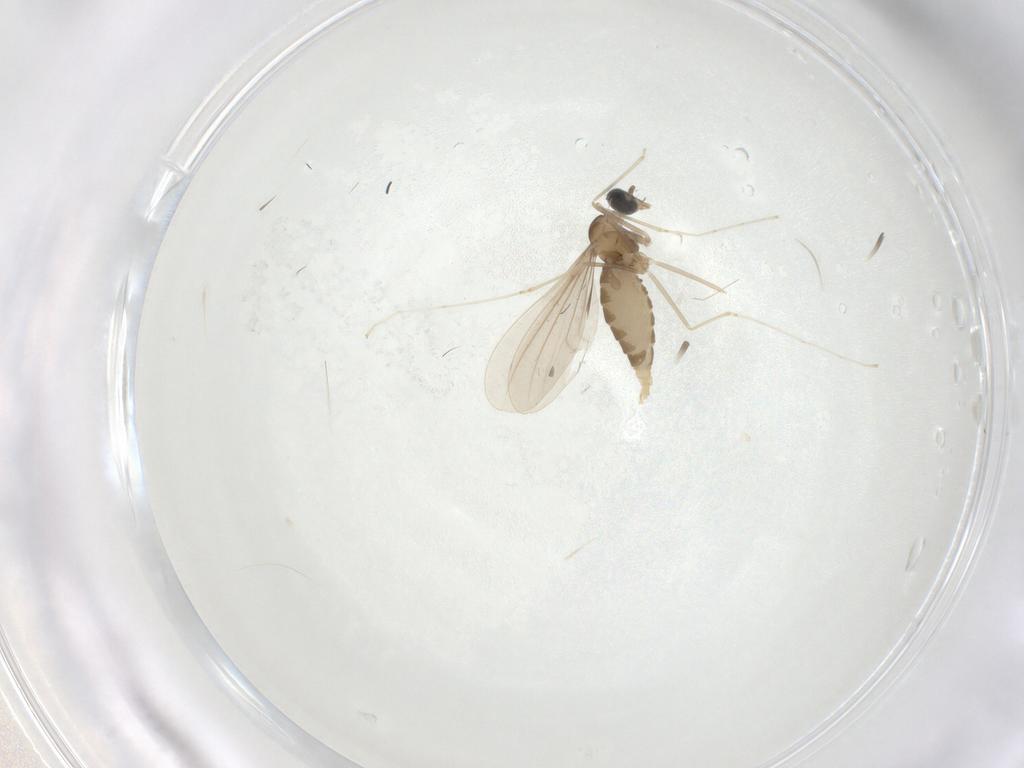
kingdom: Animalia
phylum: Arthropoda
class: Insecta
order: Diptera
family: Cecidomyiidae
